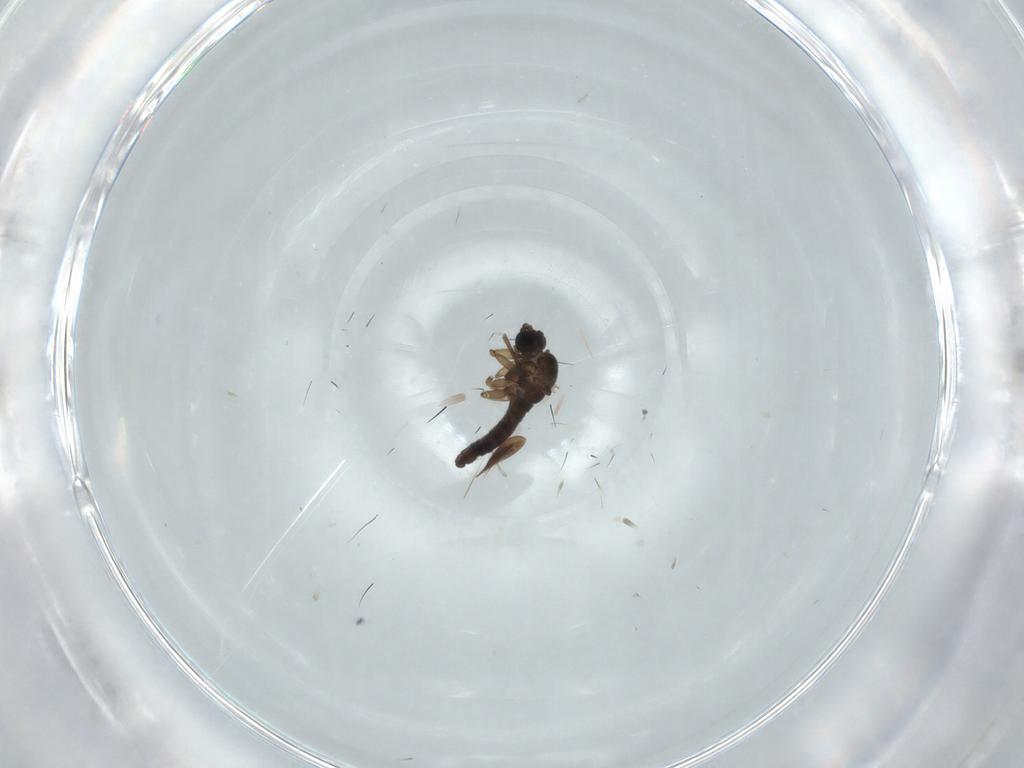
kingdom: Animalia
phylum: Arthropoda
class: Insecta
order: Diptera
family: Sciaridae
